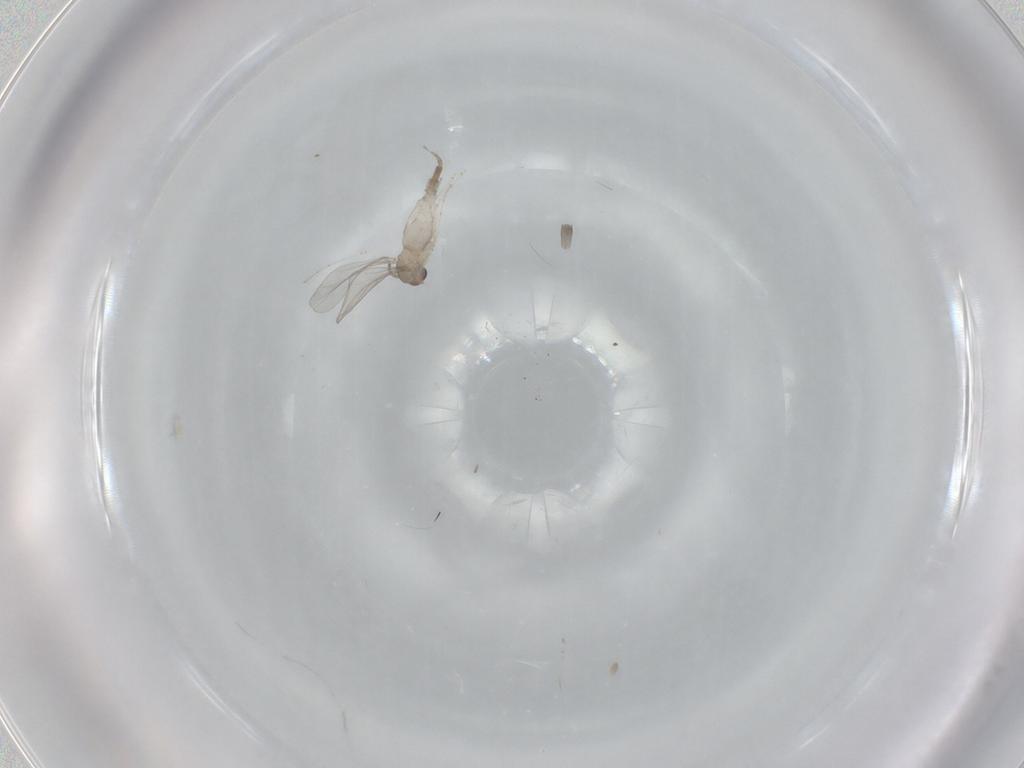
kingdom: Animalia
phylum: Arthropoda
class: Insecta
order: Diptera
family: Cecidomyiidae
